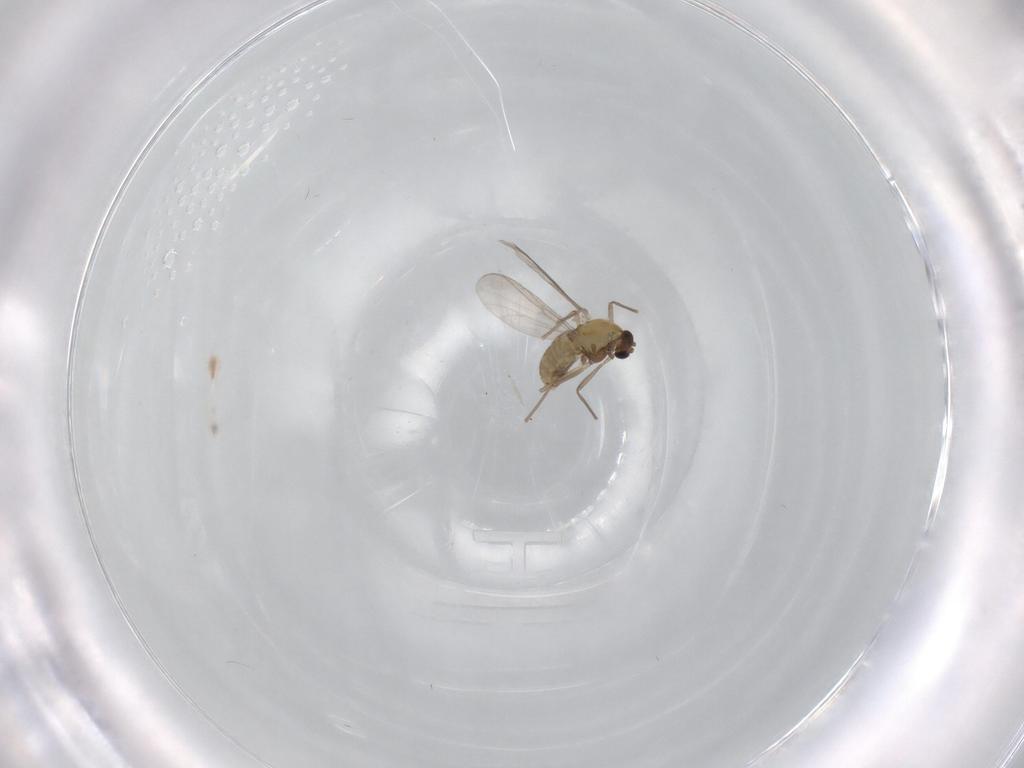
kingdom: Animalia
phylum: Arthropoda
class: Insecta
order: Diptera
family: Chironomidae
